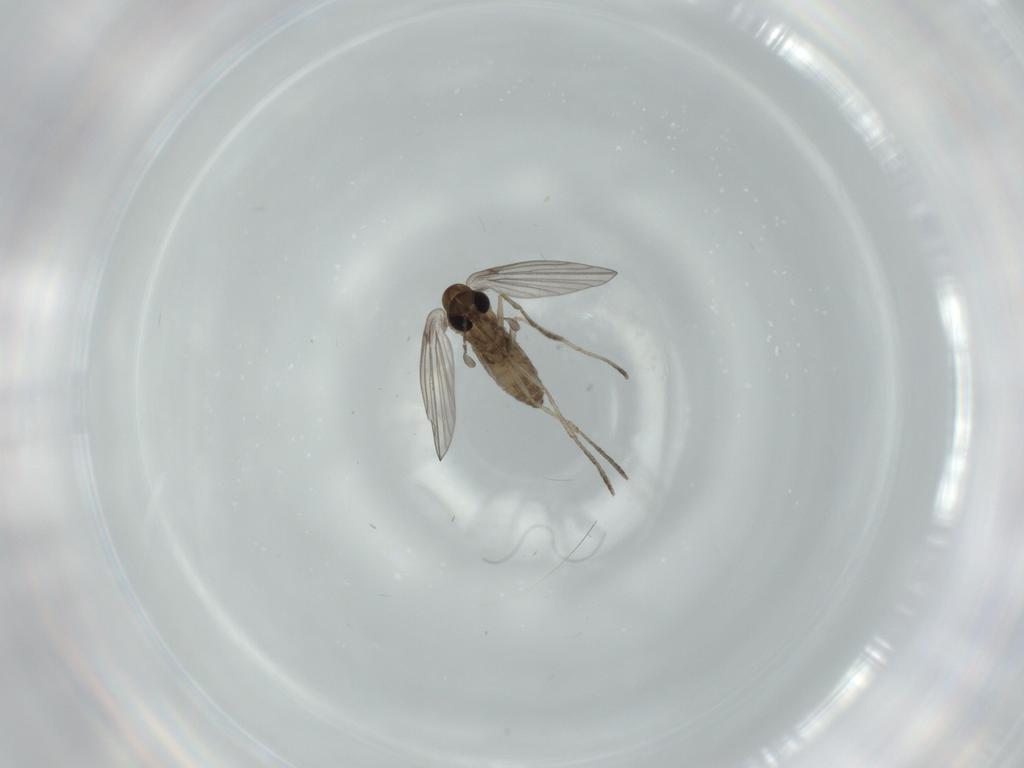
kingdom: Animalia
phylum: Arthropoda
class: Insecta
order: Diptera
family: Psychodidae
